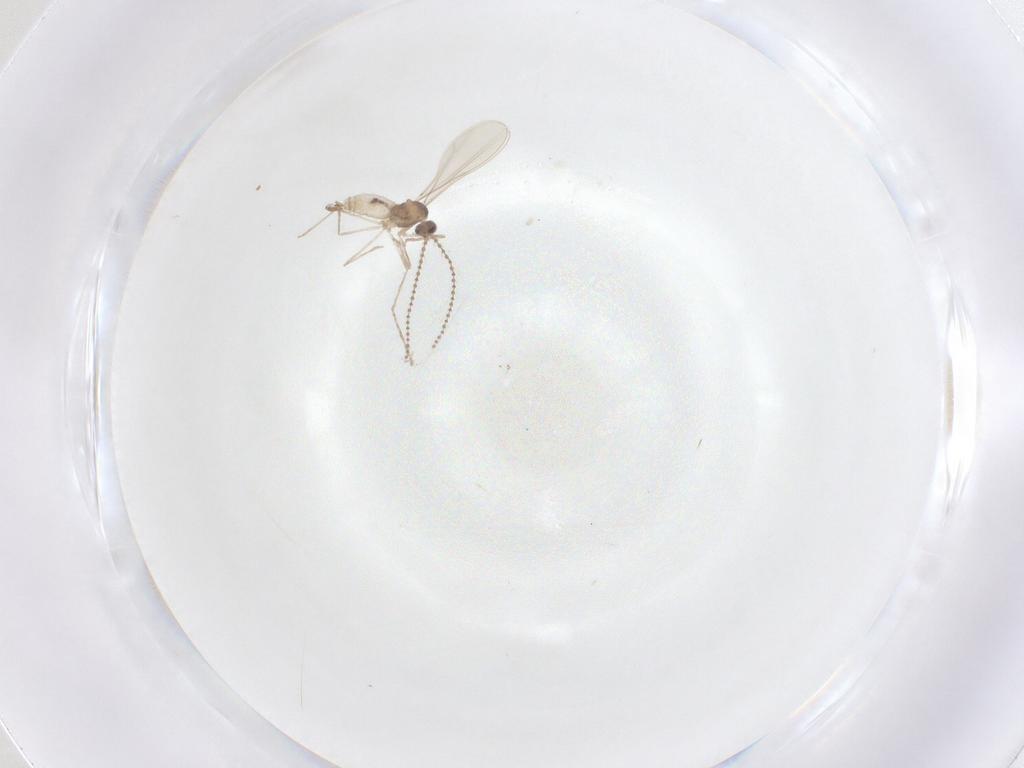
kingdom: Animalia
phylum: Arthropoda
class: Insecta
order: Diptera
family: Cecidomyiidae
